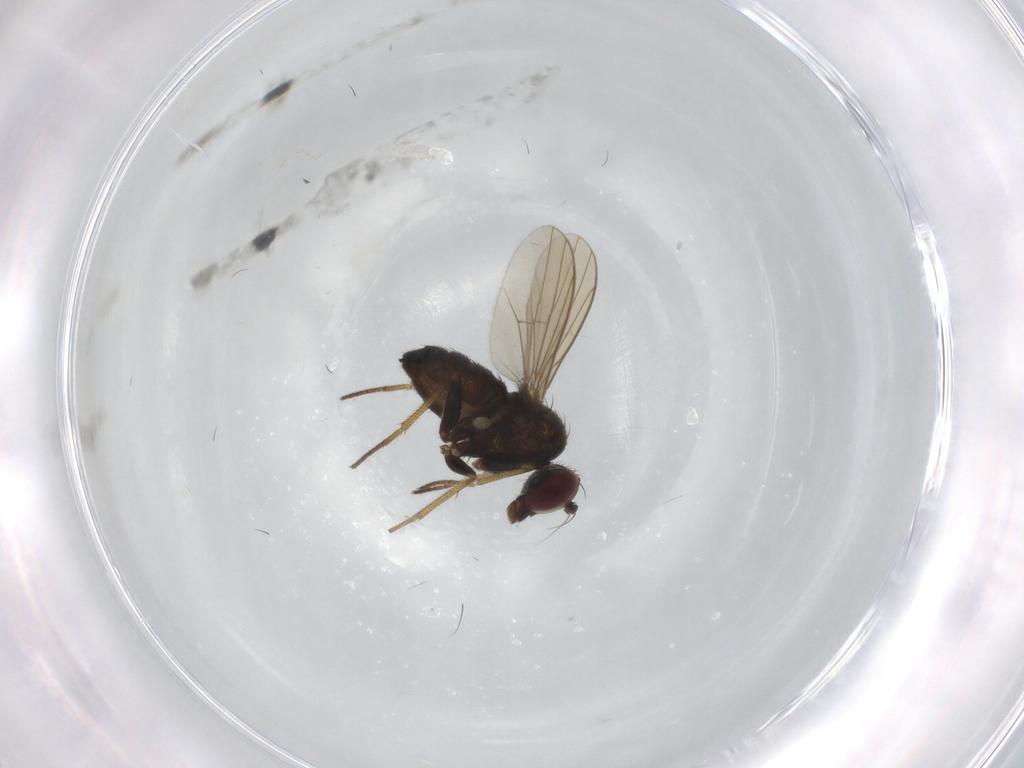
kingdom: Animalia
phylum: Arthropoda
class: Insecta
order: Diptera
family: Dolichopodidae
